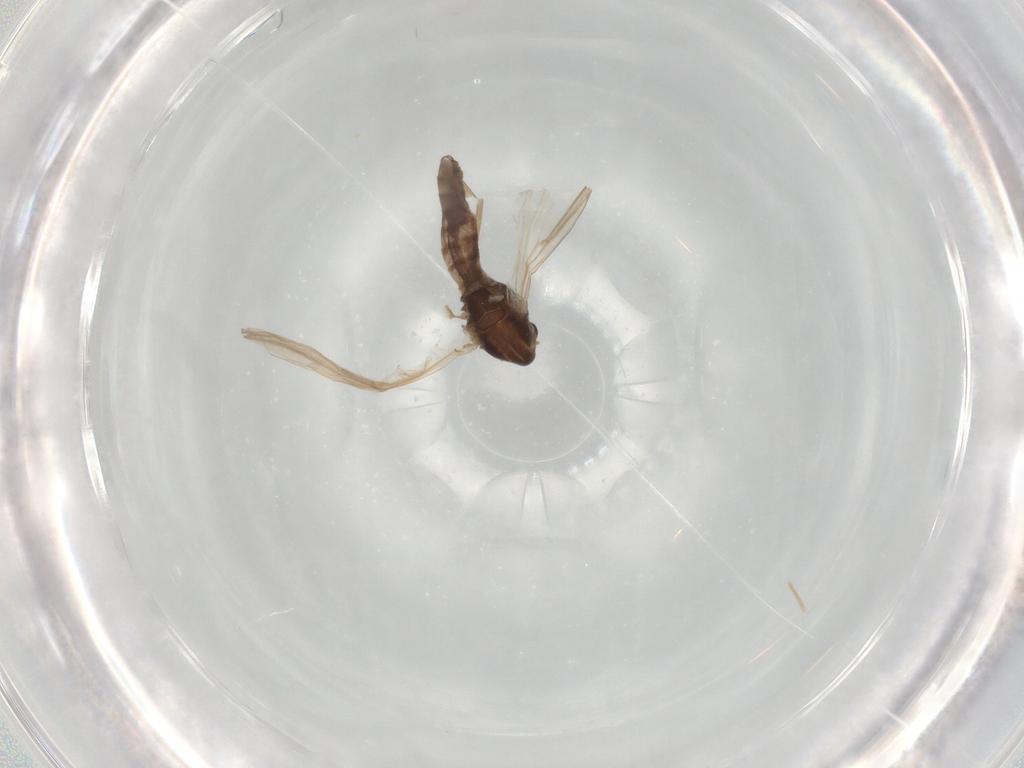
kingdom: Animalia
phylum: Arthropoda
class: Insecta
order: Diptera
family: Chironomidae
